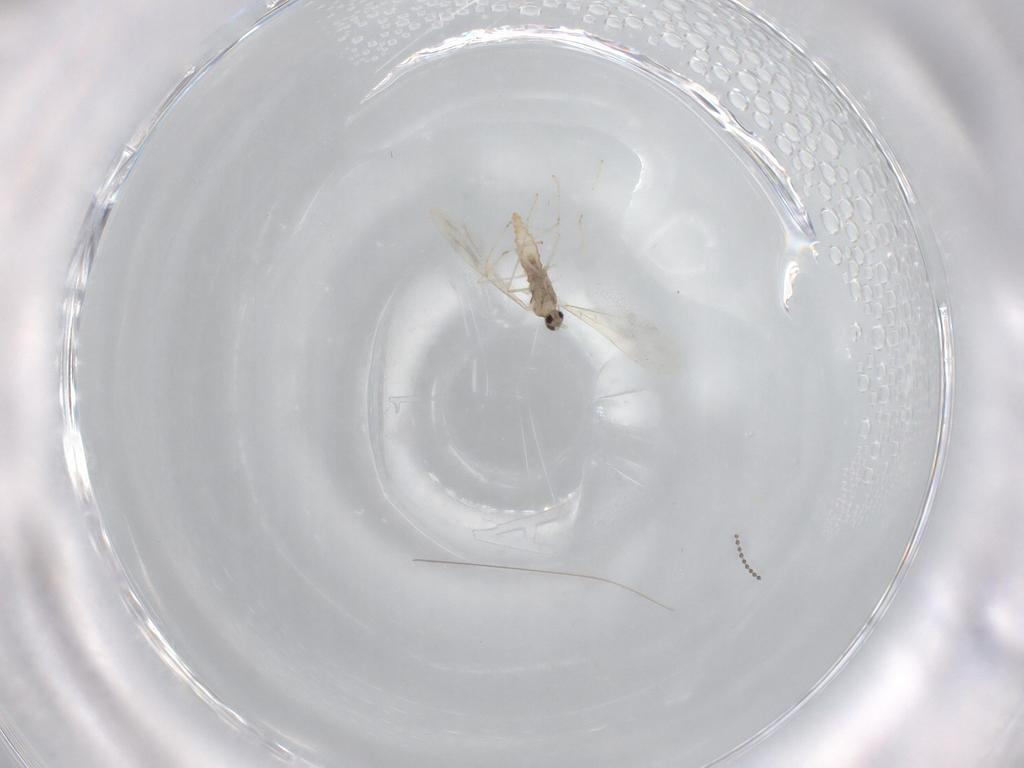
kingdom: Animalia
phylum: Arthropoda
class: Insecta
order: Diptera
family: Cecidomyiidae
